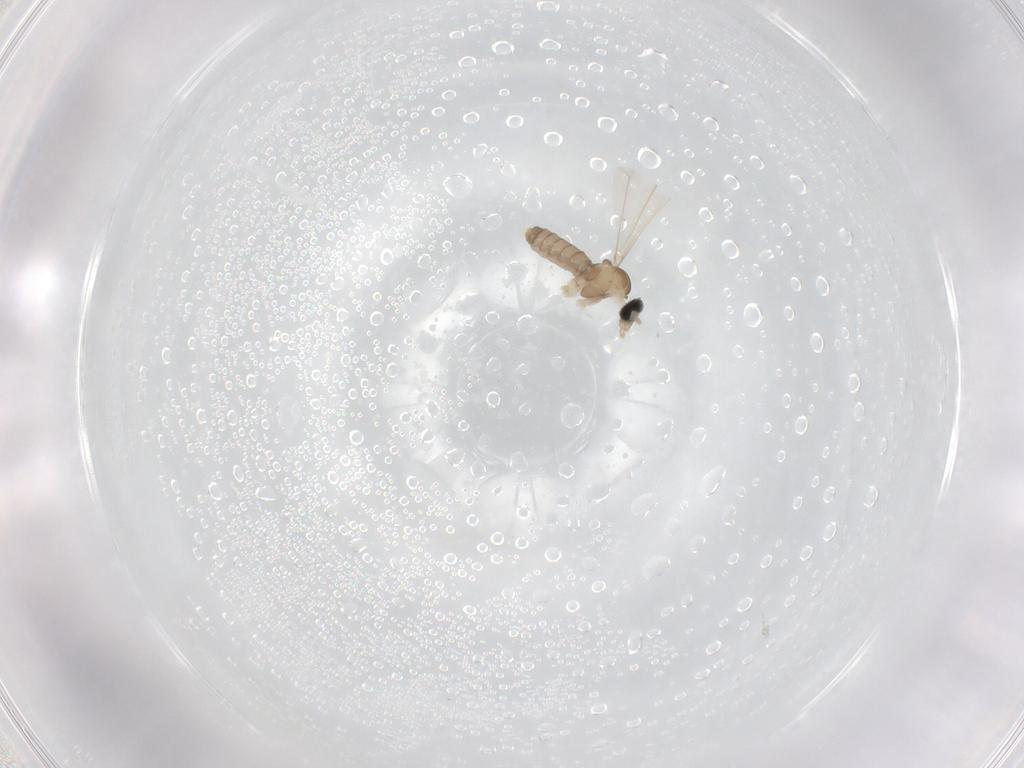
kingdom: Animalia
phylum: Arthropoda
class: Insecta
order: Diptera
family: Cecidomyiidae
